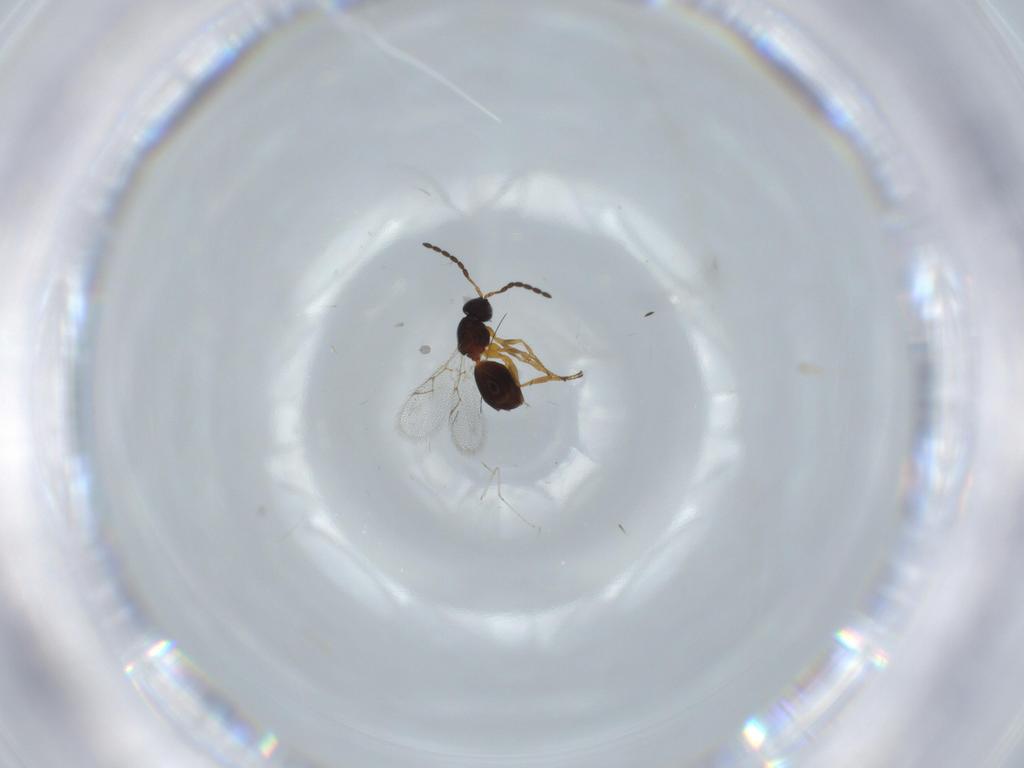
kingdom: Animalia
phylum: Arthropoda
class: Insecta
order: Hymenoptera
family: Figitidae
